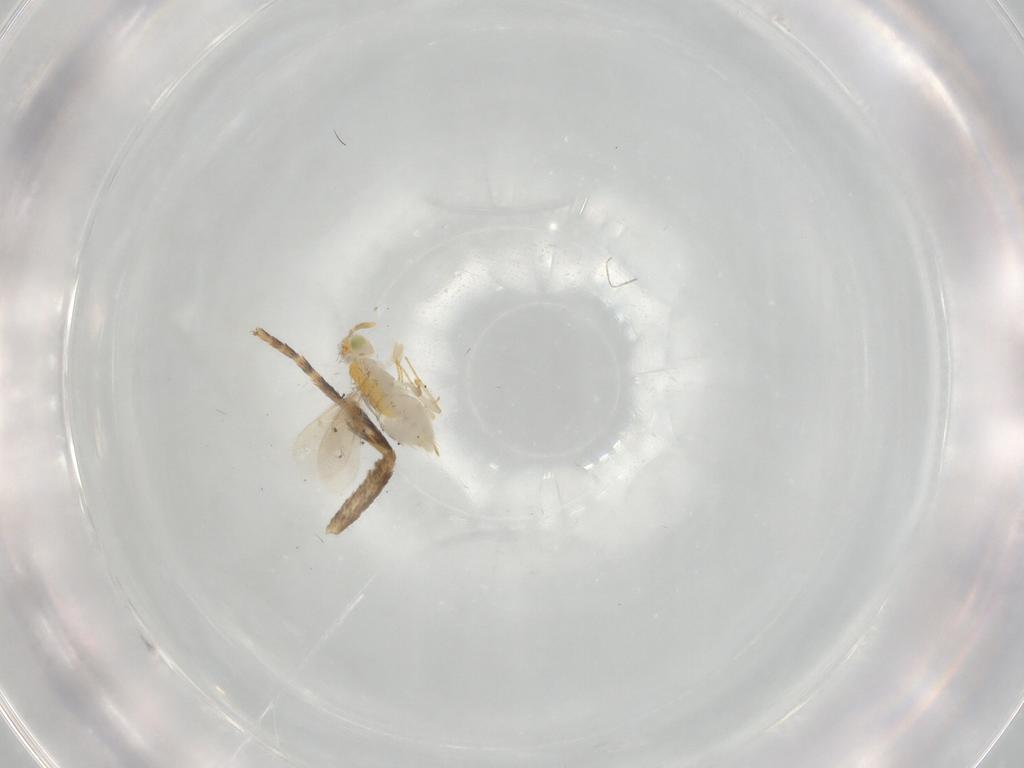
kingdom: Animalia
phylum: Arthropoda
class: Insecta
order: Hymenoptera
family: Aphelinidae
